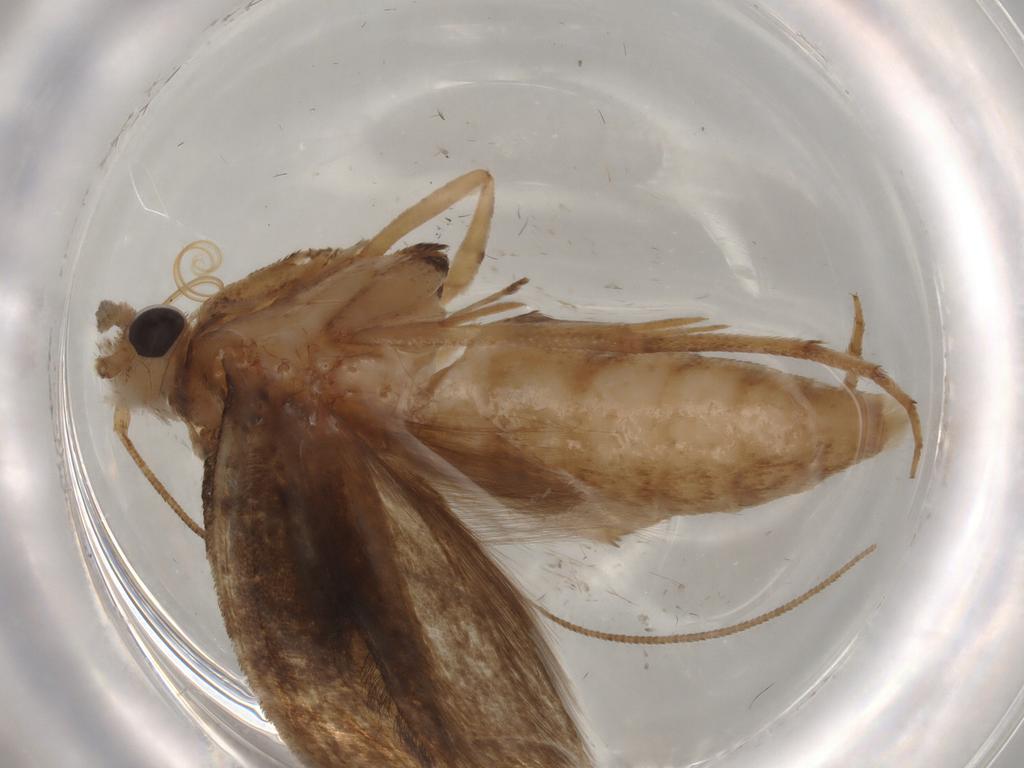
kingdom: Animalia
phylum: Arthropoda
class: Insecta
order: Lepidoptera
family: Yponomeutidae
